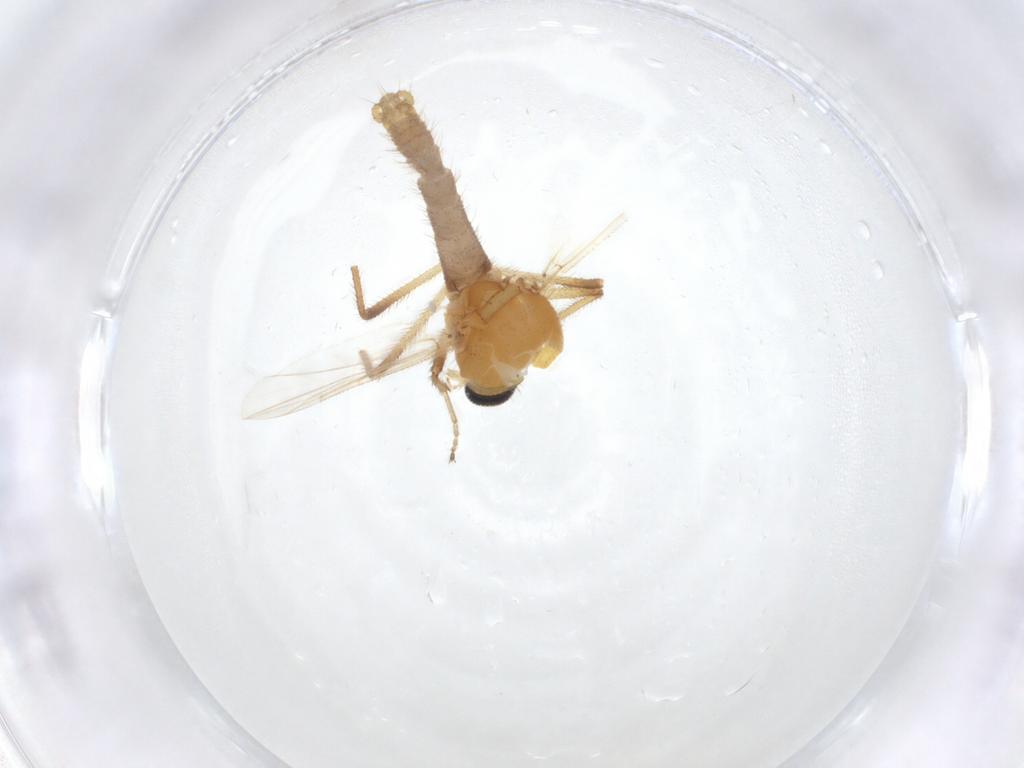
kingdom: Animalia
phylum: Arthropoda
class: Insecta
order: Diptera
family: Ceratopogonidae
